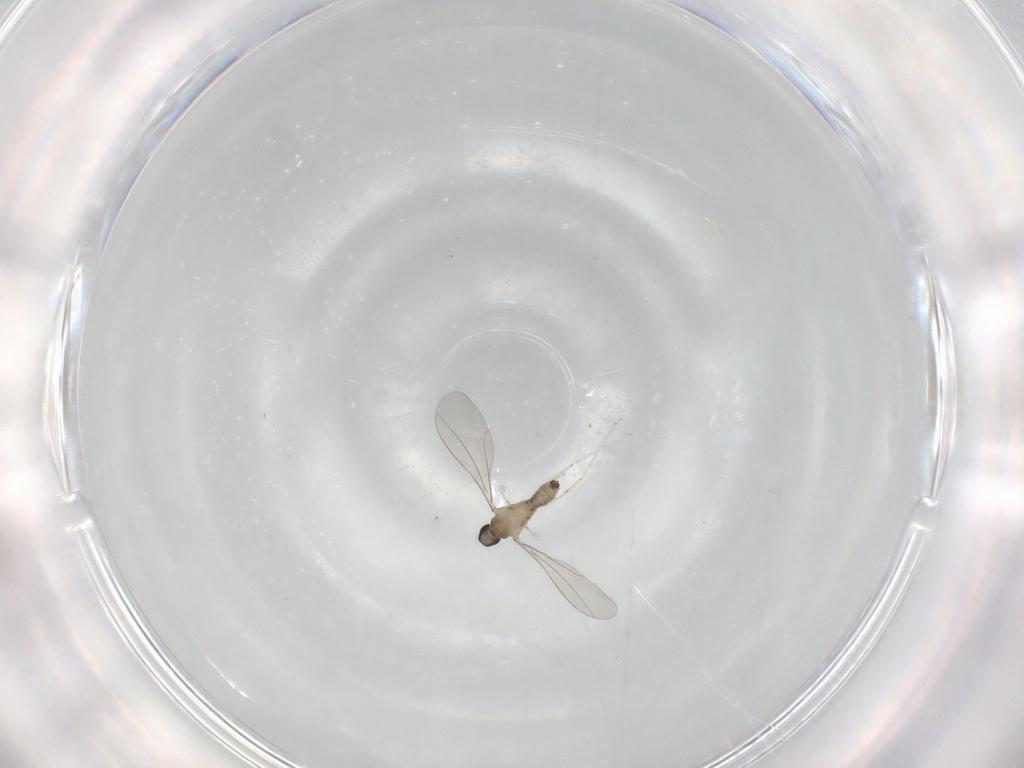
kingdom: Animalia
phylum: Arthropoda
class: Insecta
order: Diptera
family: Cecidomyiidae
